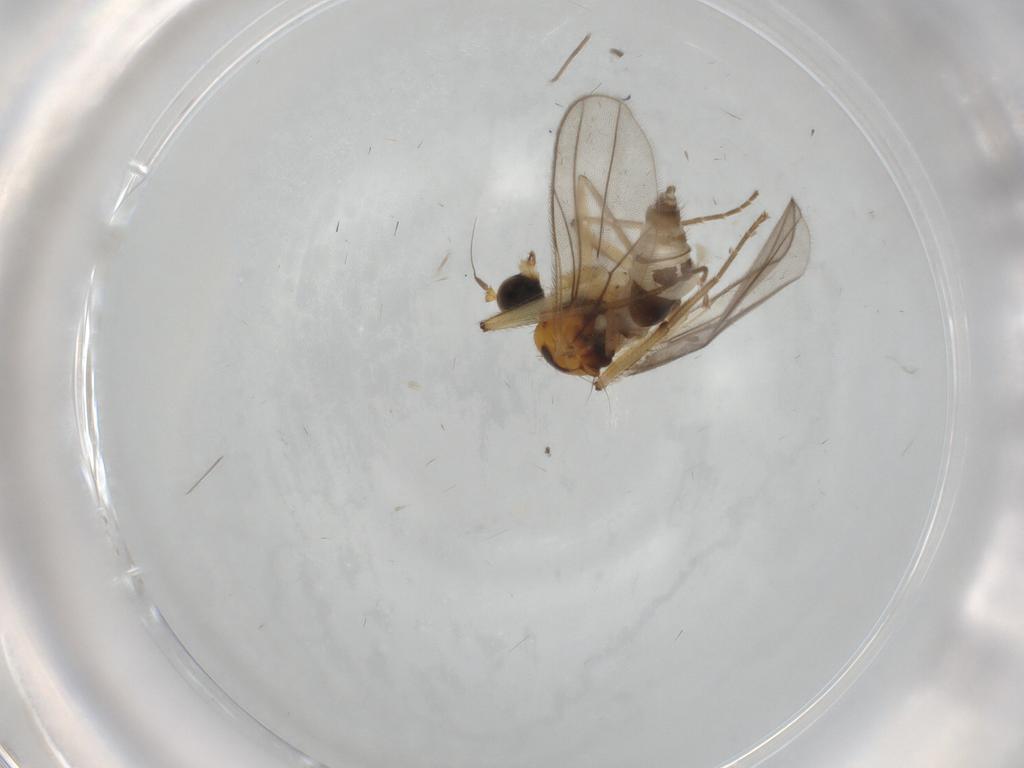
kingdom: Animalia
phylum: Arthropoda
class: Insecta
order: Diptera
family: Hybotidae
